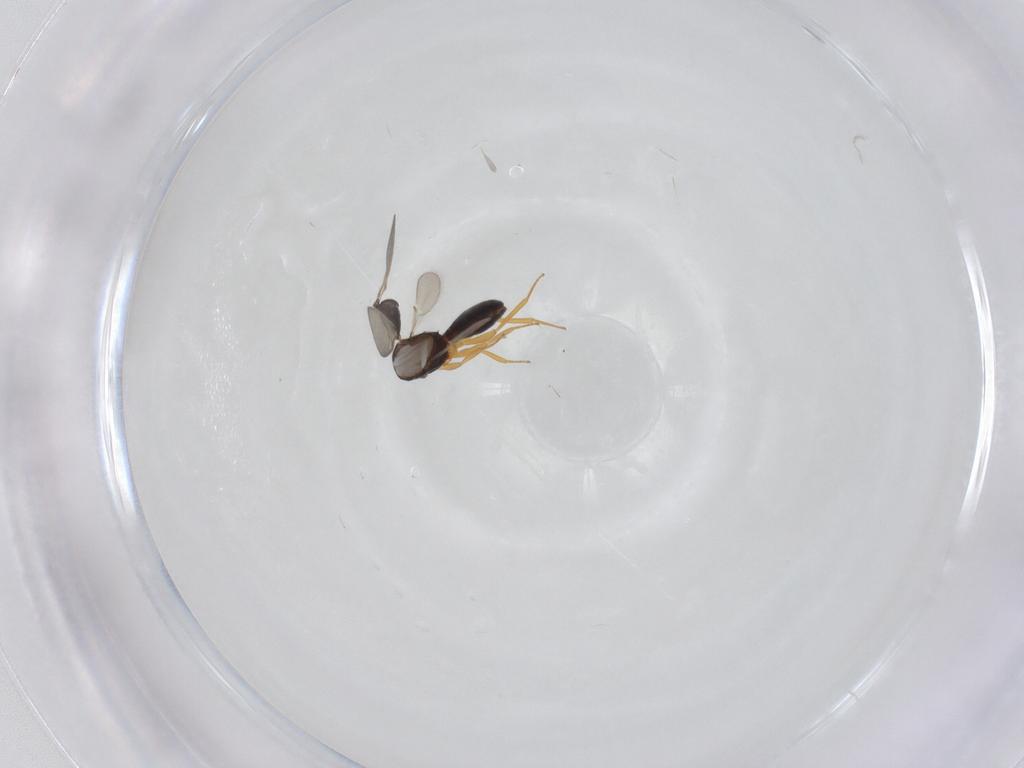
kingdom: Animalia
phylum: Arthropoda
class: Insecta
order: Hymenoptera
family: Scelionidae
